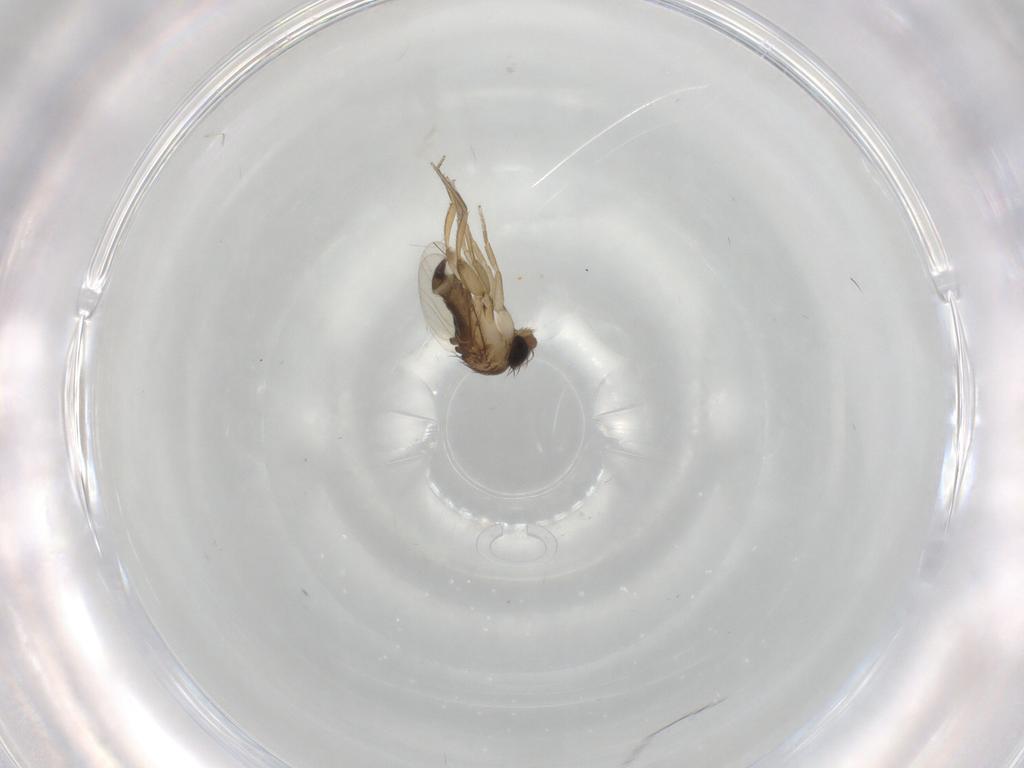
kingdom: Animalia
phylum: Arthropoda
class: Insecta
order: Diptera
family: Phoridae
